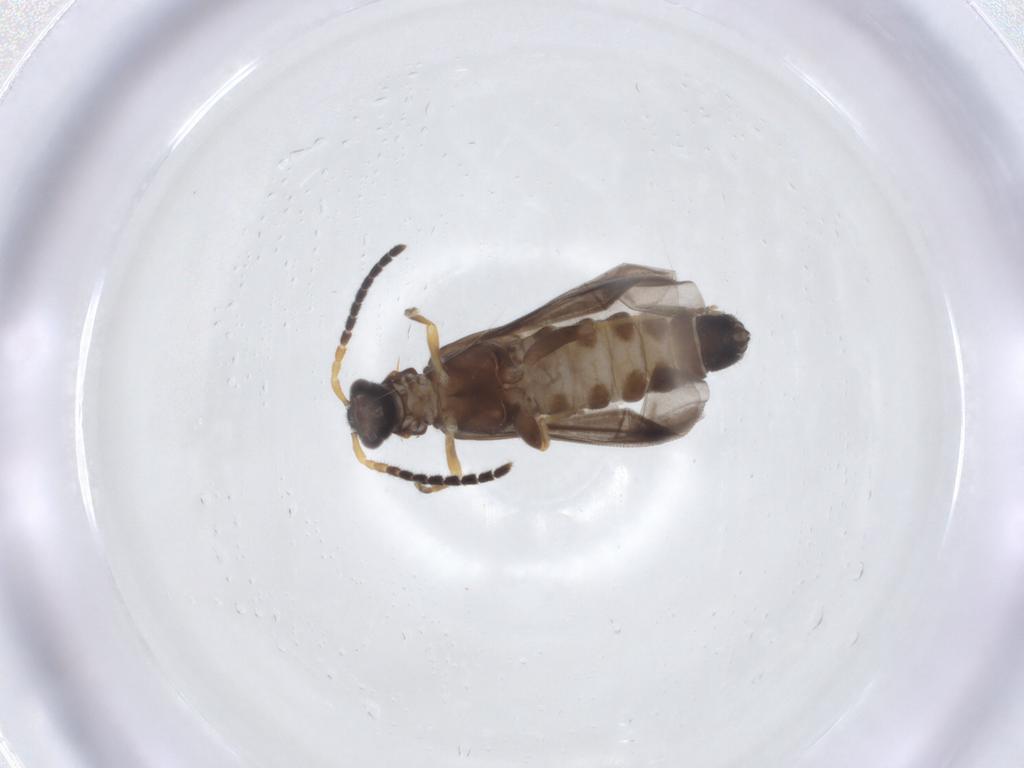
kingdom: Animalia
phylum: Arthropoda
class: Insecta
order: Coleoptera
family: Cantharidae
